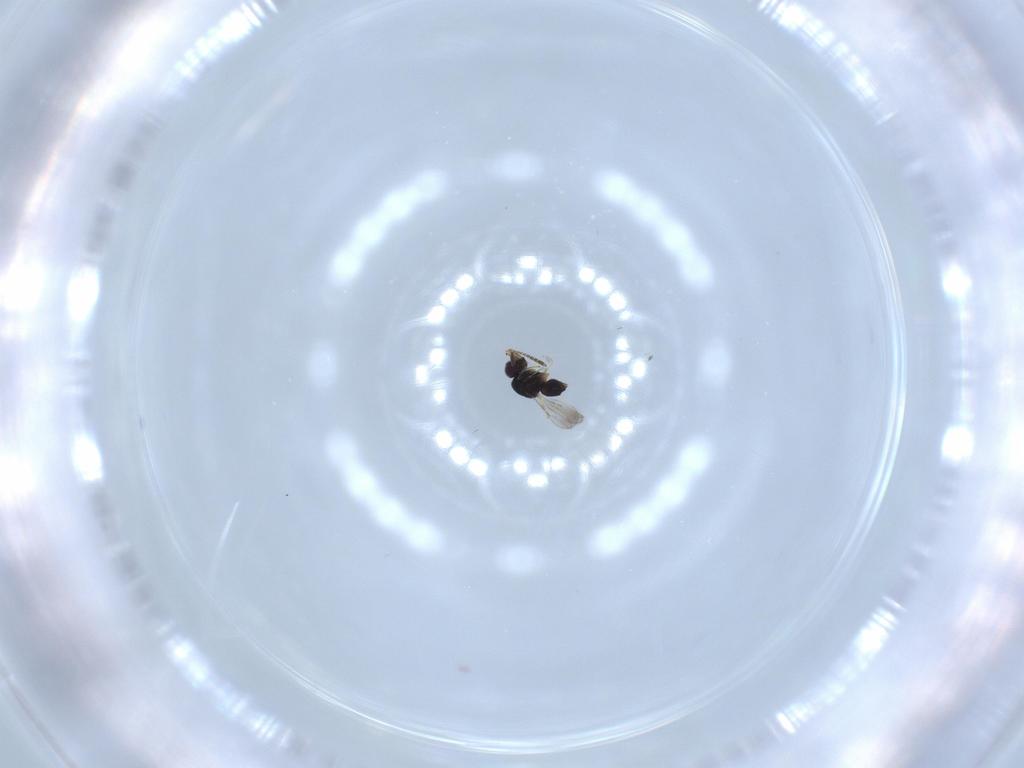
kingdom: Animalia
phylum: Arthropoda
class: Insecta
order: Hymenoptera
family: Formicidae
